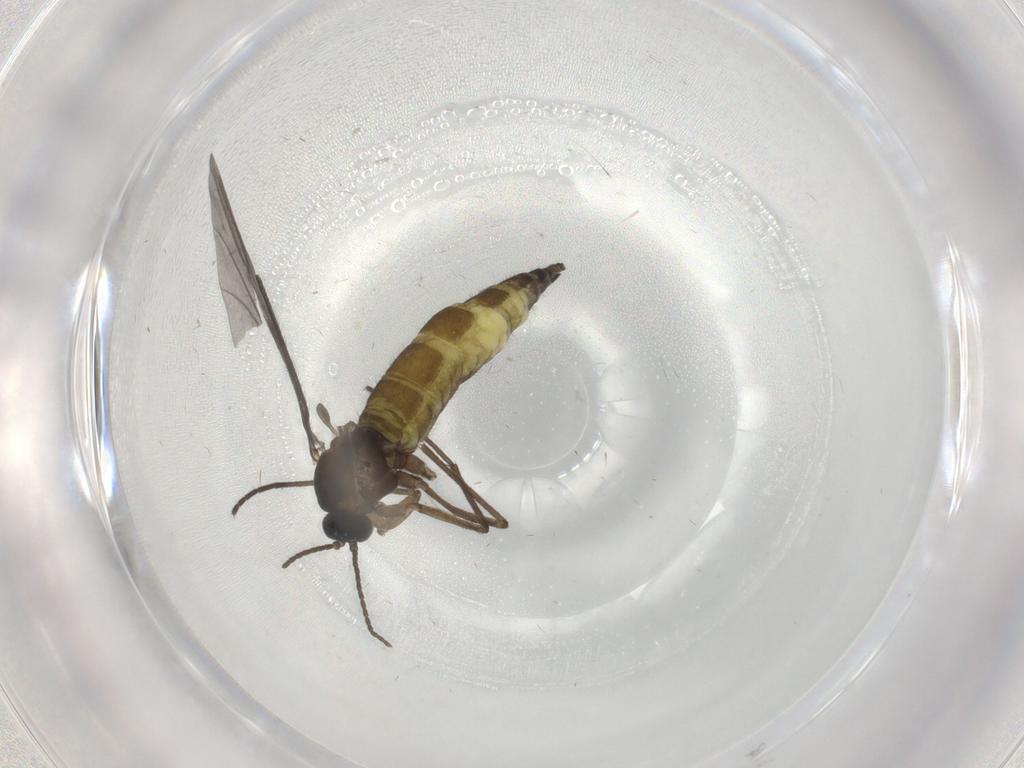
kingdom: Animalia
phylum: Arthropoda
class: Insecta
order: Diptera
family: Sciaridae
